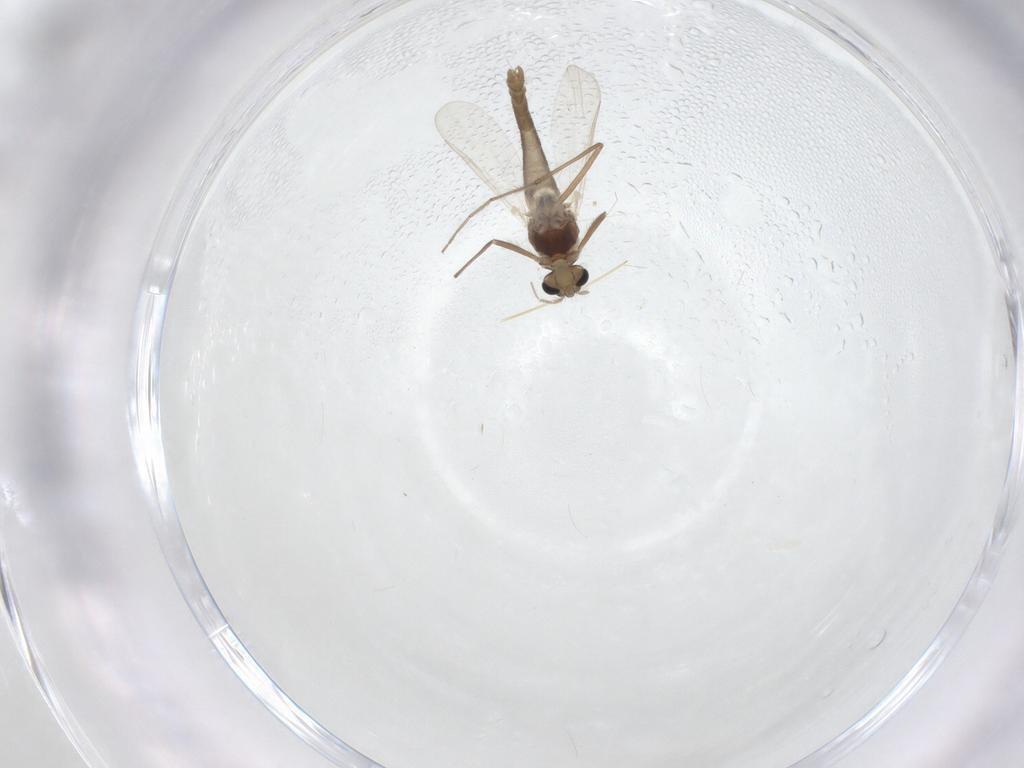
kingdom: Animalia
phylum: Arthropoda
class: Insecta
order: Diptera
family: Chironomidae
